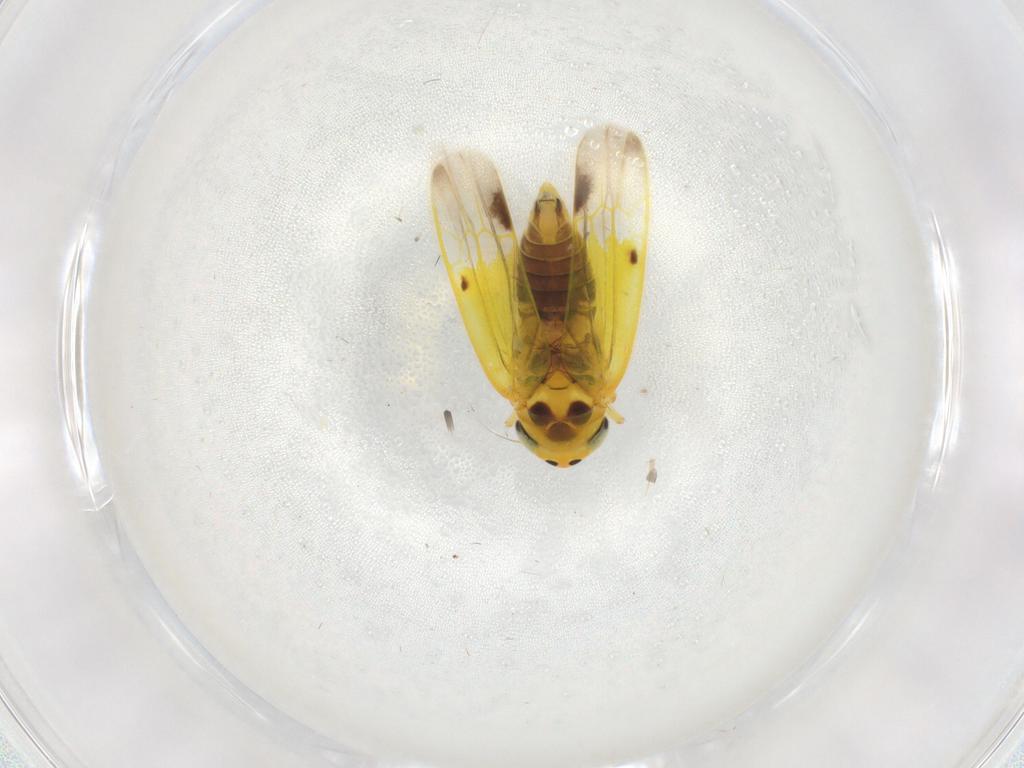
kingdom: Animalia
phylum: Arthropoda
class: Insecta
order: Hemiptera
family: Cicadellidae
